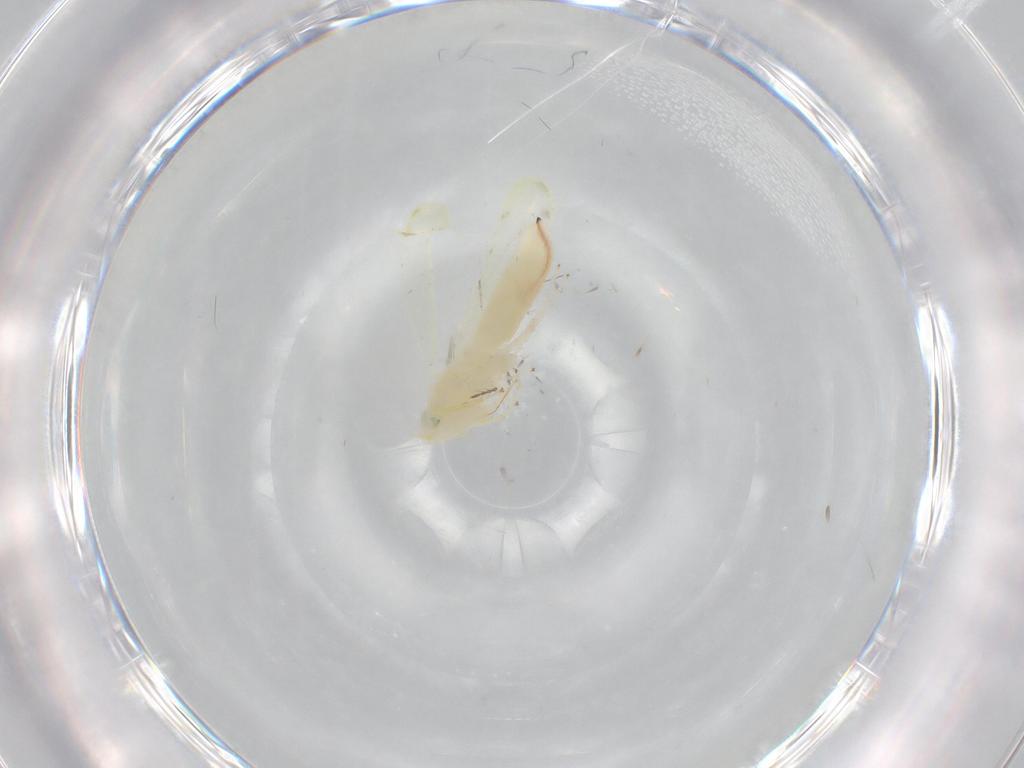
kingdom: Animalia
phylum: Arthropoda
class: Insecta
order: Hemiptera
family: Cicadellidae
